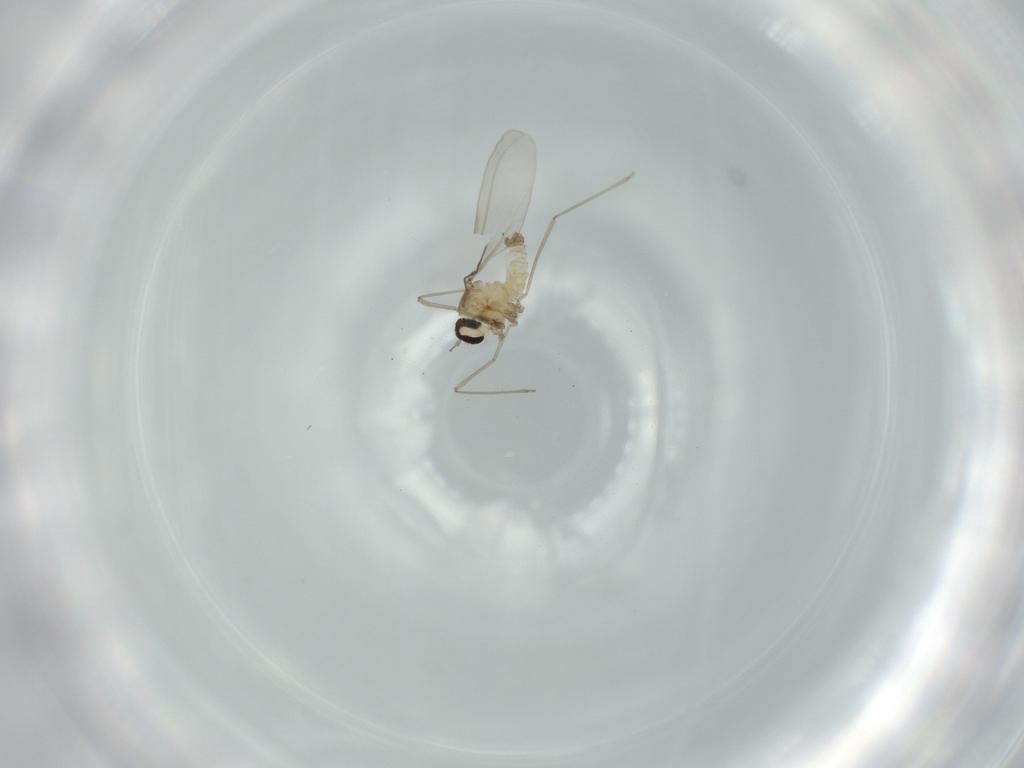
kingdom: Animalia
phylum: Arthropoda
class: Insecta
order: Diptera
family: Cecidomyiidae
